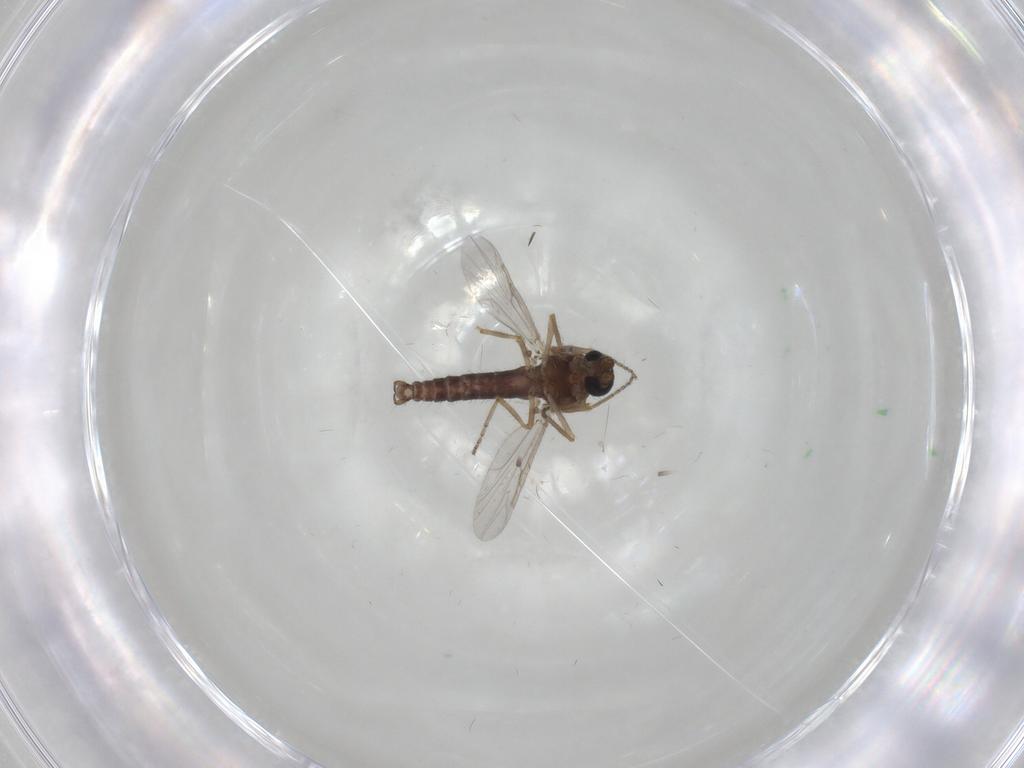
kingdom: Animalia
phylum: Arthropoda
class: Insecta
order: Diptera
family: Ceratopogonidae
